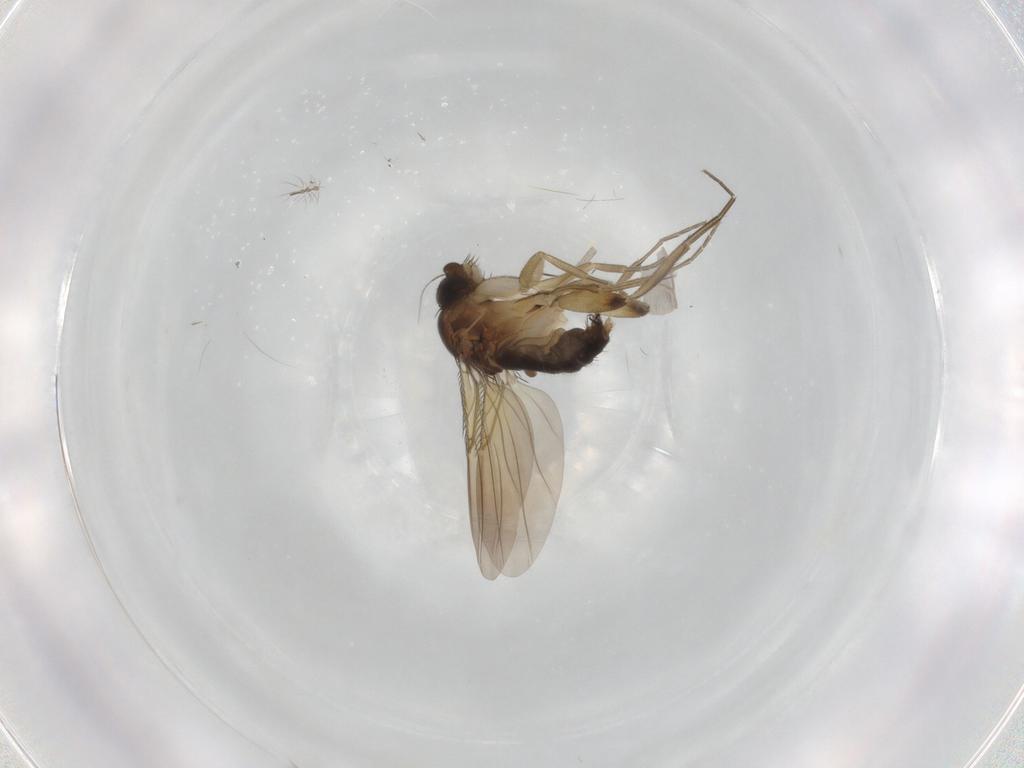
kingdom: Animalia
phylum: Arthropoda
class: Insecta
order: Diptera
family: Phoridae
